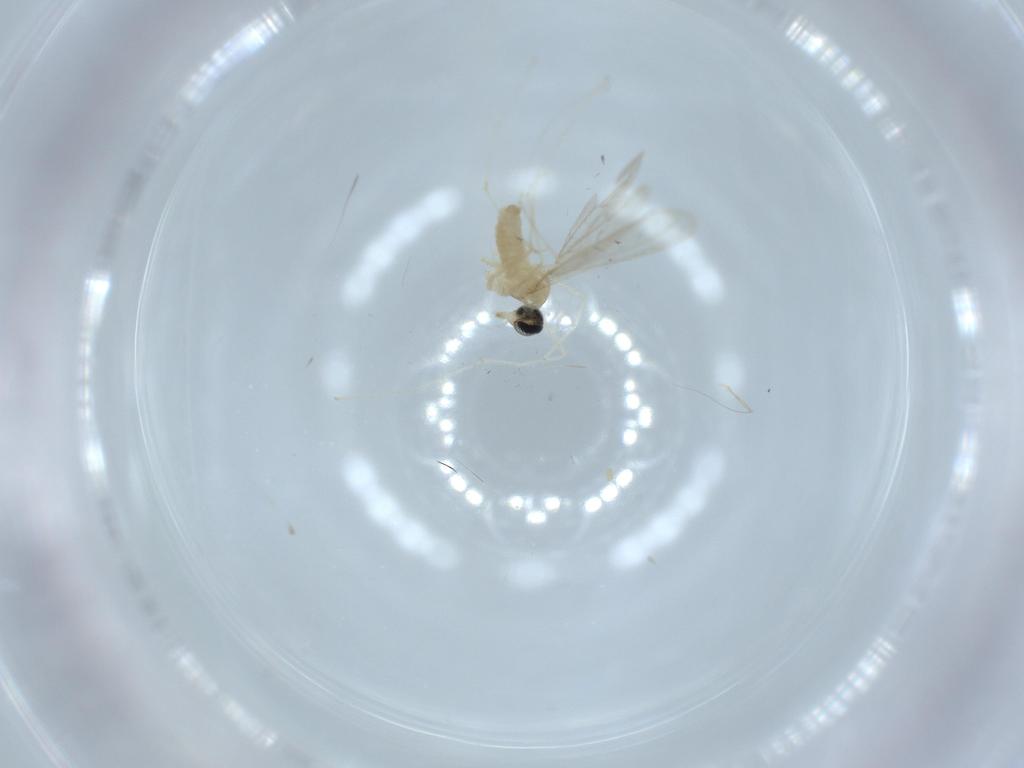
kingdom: Animalia
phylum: Arthropoda
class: Insecta
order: Diptera
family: Cecidomyiidae
